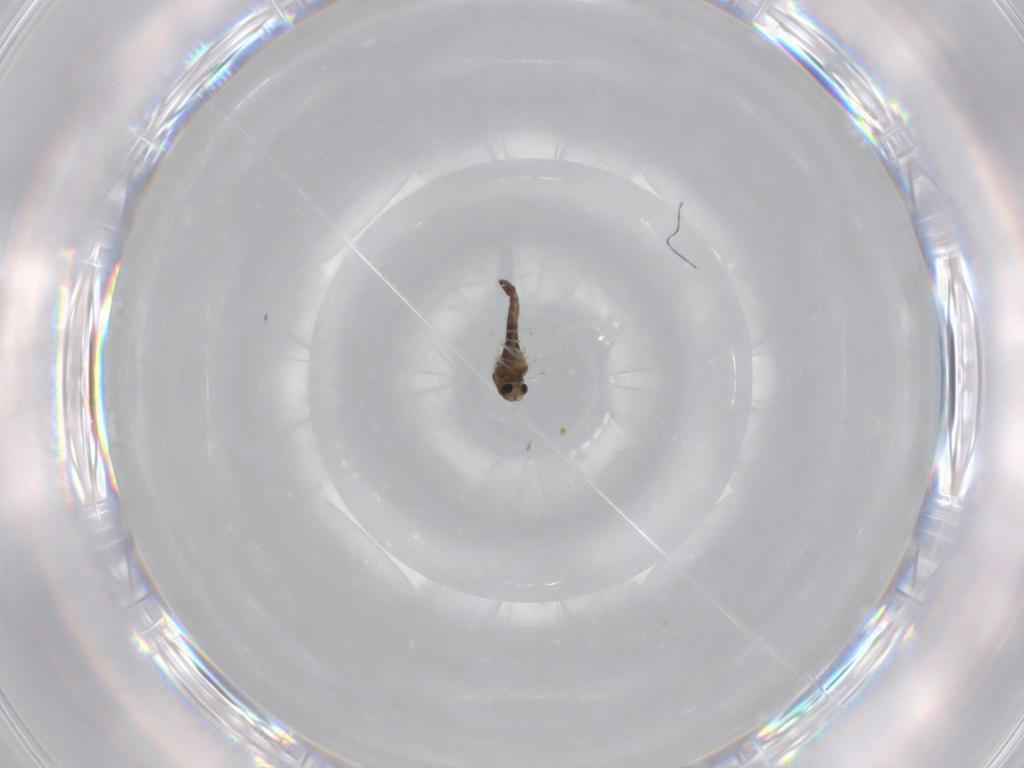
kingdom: Animalia
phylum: Arthropoda
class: Insecta
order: Diptera
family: Chironomidae
